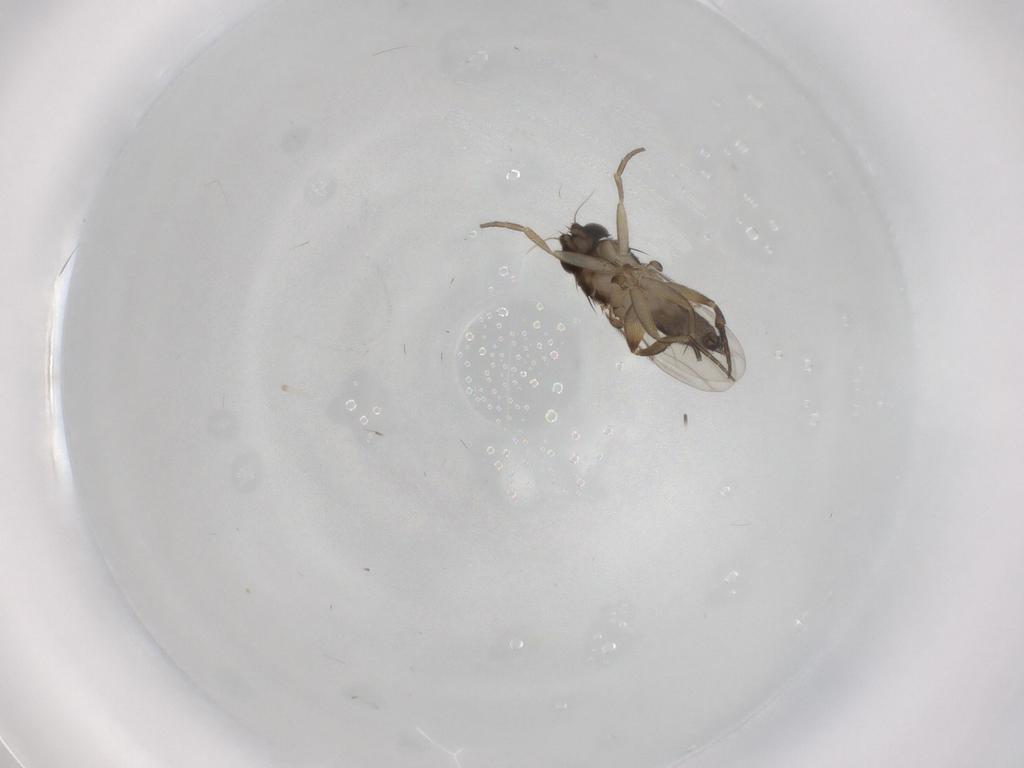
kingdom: Animalia
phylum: Arthropoda
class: Insecta
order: Diptera
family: Phoridae
